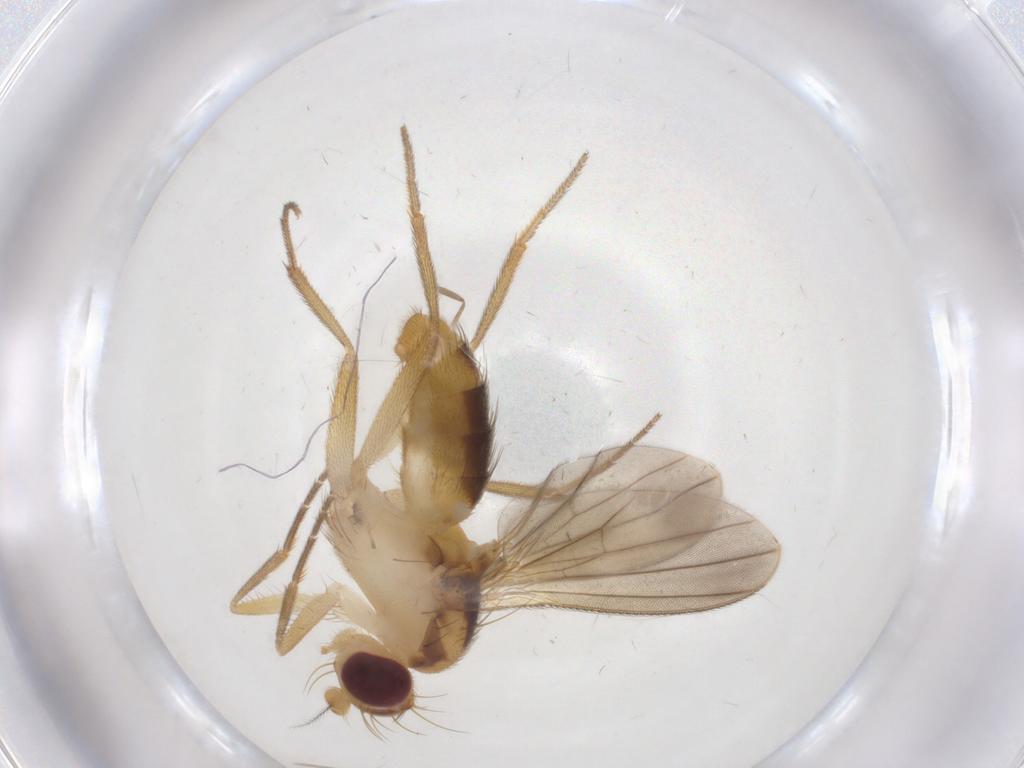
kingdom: Animalia
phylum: Arthropoda
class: Insecta
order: Diptera
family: Clusiidae
